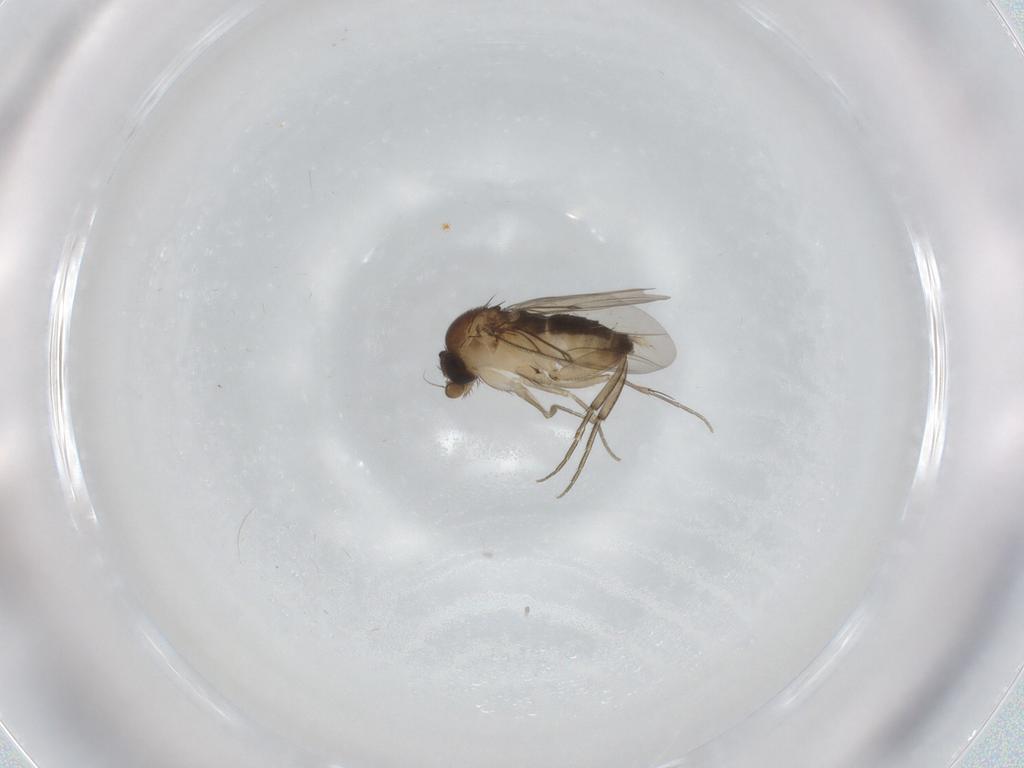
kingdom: Animalia
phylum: Arthropoda
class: Insecta
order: Diptera
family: Phoridae
